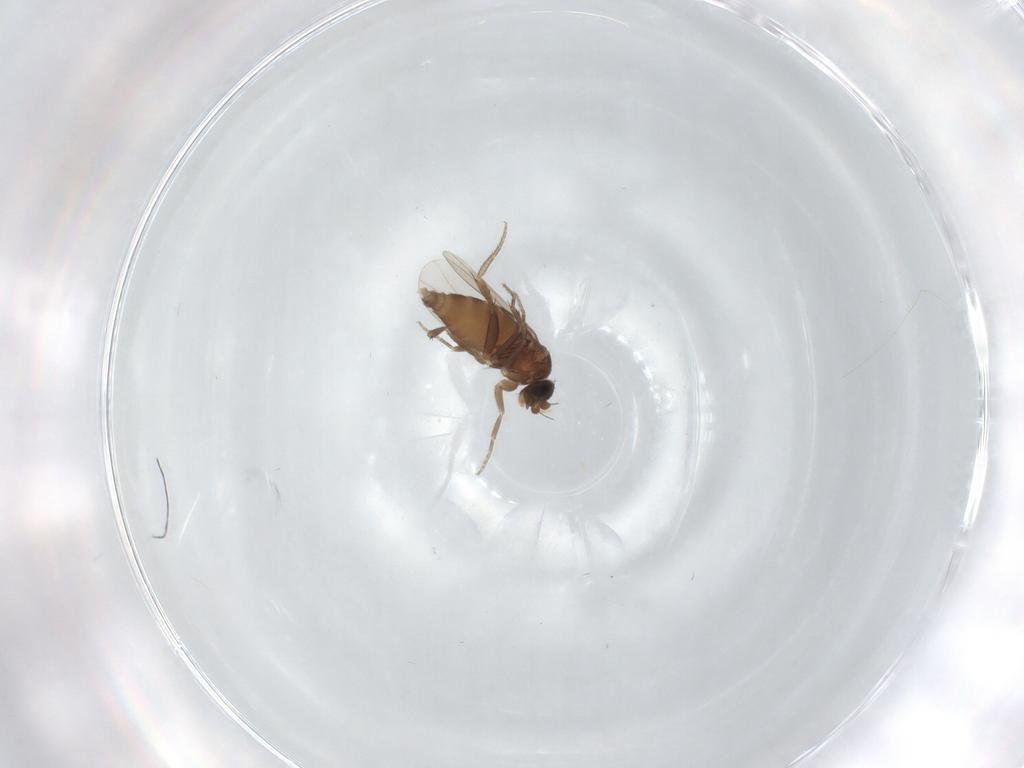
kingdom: Animalia
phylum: Arthropoda
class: Insecta
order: Diptera
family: Phoridae
